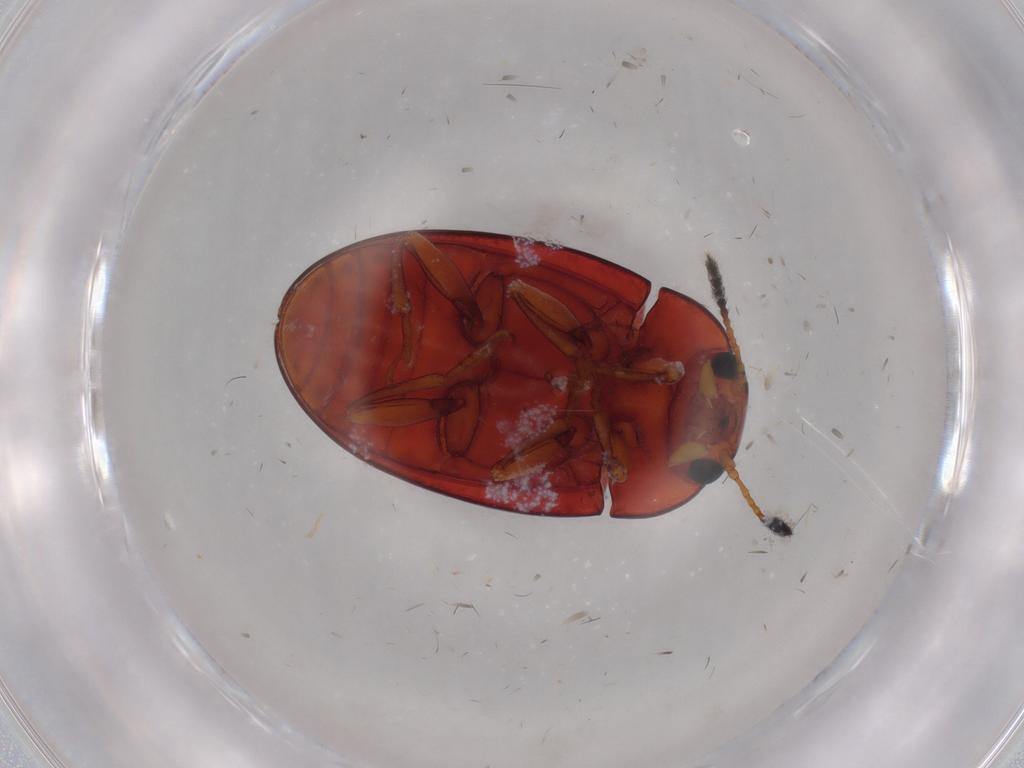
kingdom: Animalia
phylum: Arthropoda
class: Insecta
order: Coleoptera
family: Erotylidae
